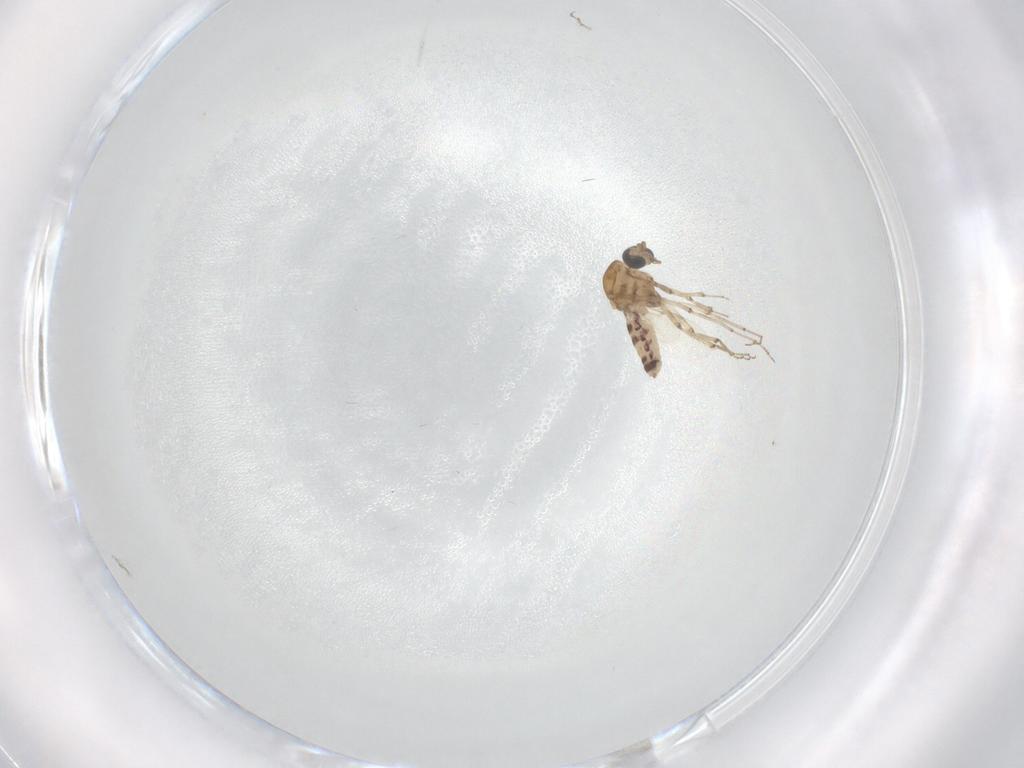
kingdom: Animalia
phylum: Arthropoda
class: Insecta
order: Diptera
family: Ceratopogonidae
